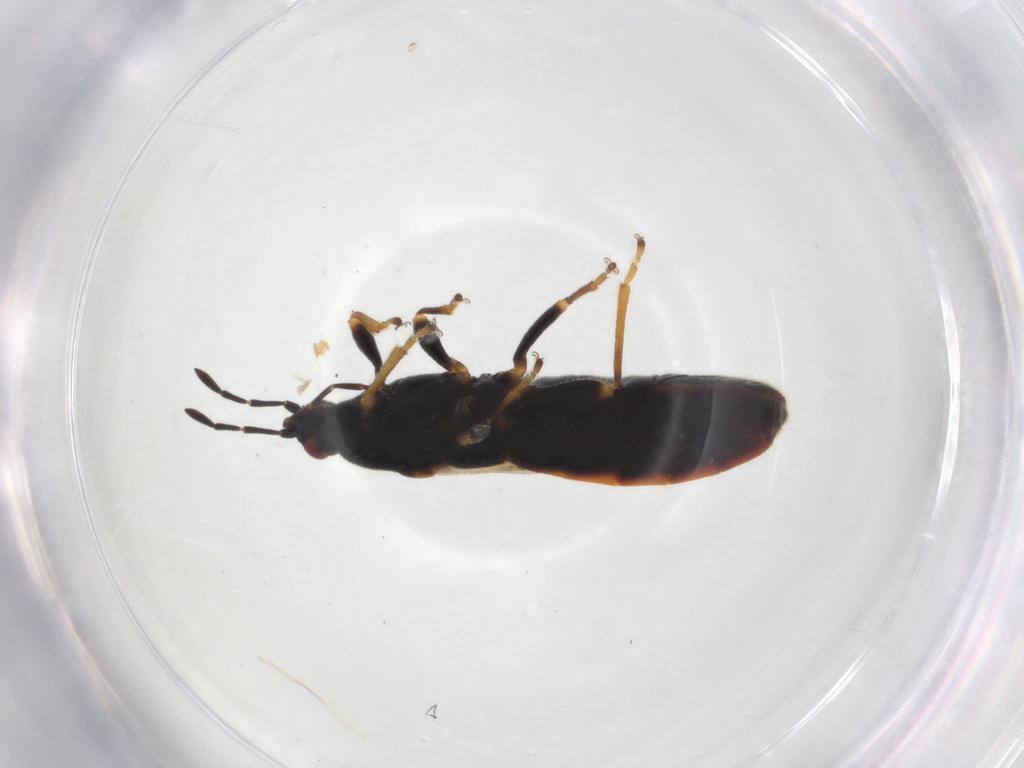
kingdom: Animalia
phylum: Arthropoda
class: Insecta
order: Hemiptera
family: Blissidae
